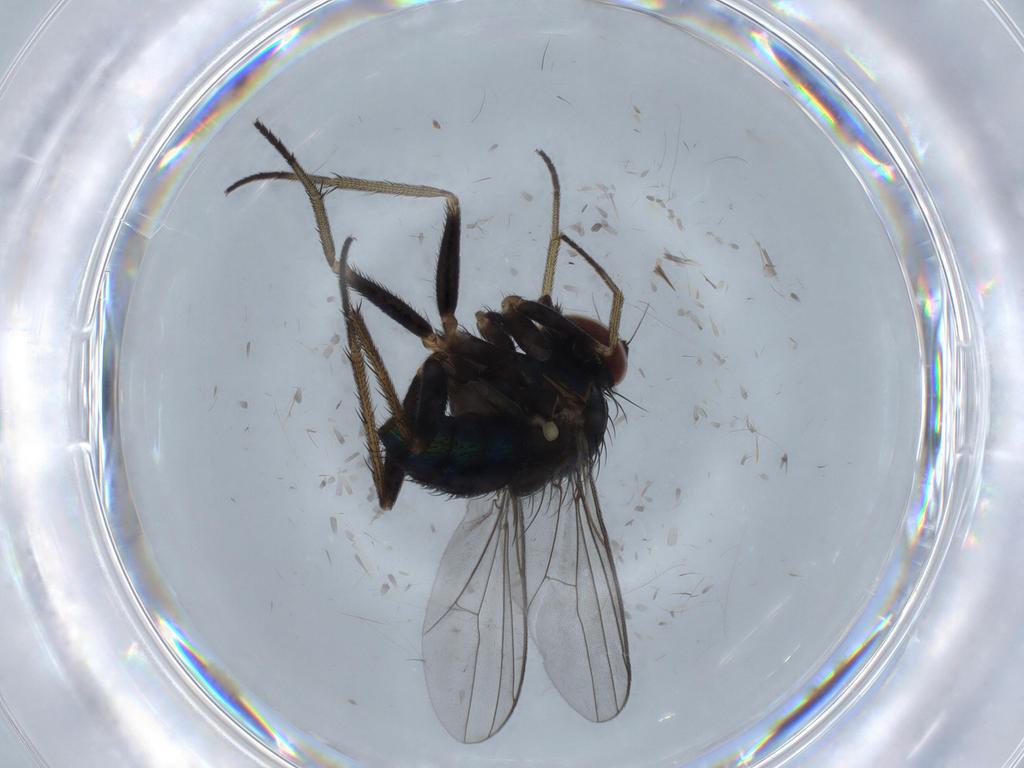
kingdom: Animalia
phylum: Arthropoda
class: Insecta
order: Diptera
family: Dolichopodidae
